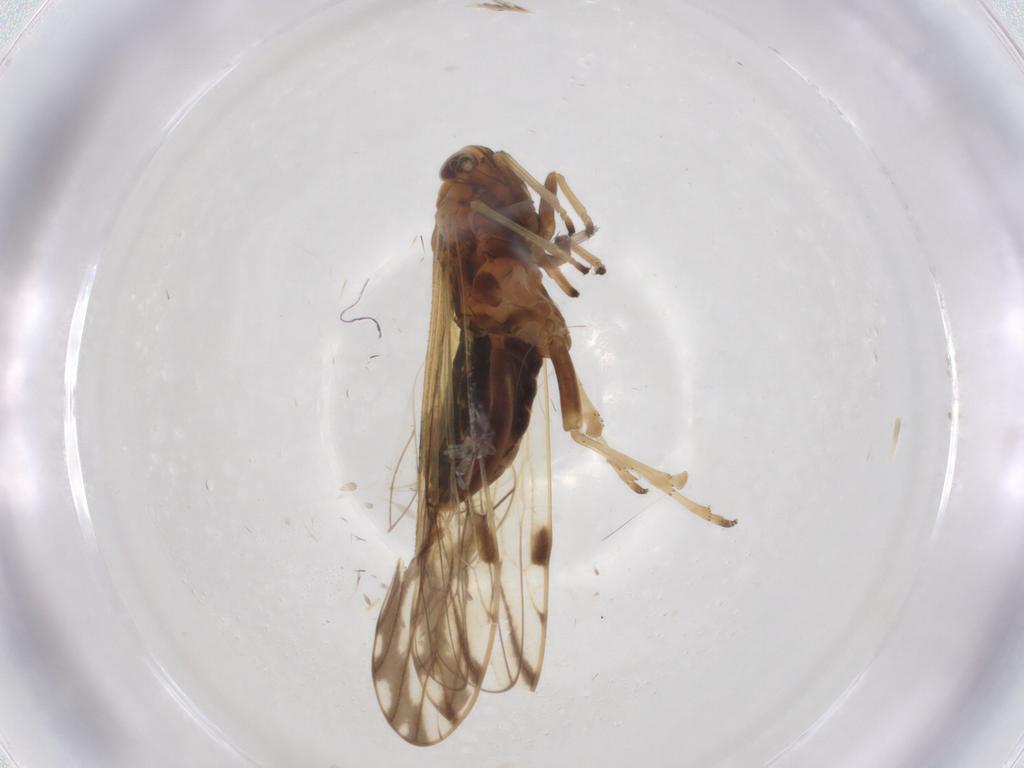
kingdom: Animalia
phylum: Arthropoda
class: Insecta
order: Hemiptera
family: Delphacidae
